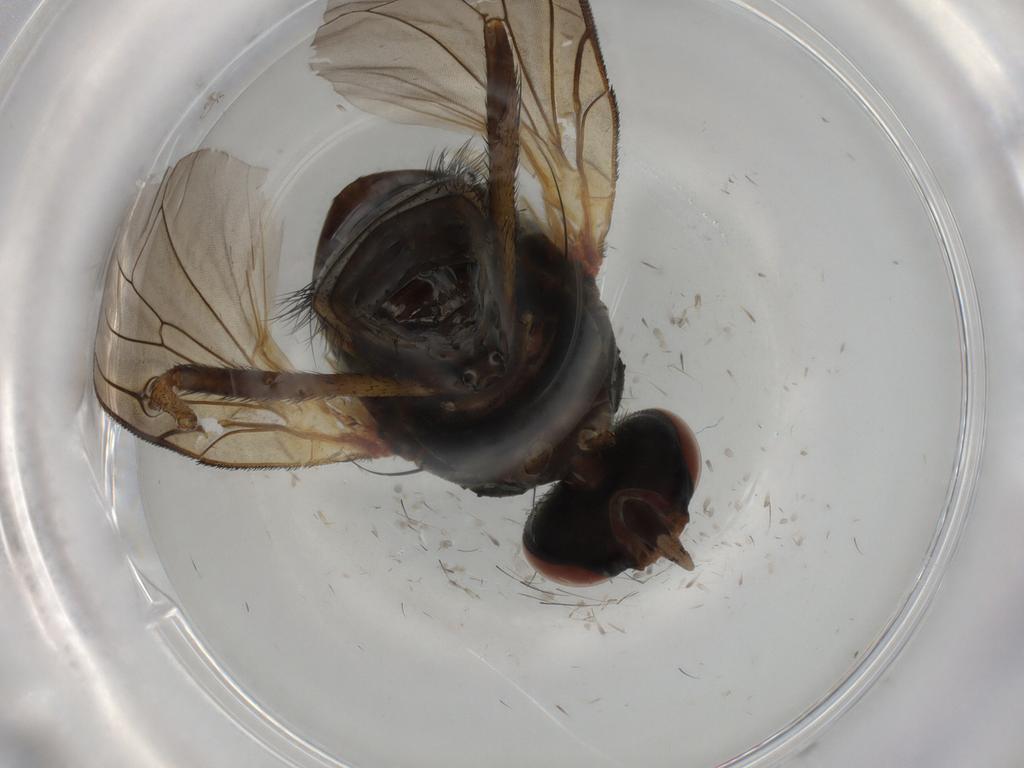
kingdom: Animalia
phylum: Arthropoda
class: Insecta
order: Diptera
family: Anthomyiidae
